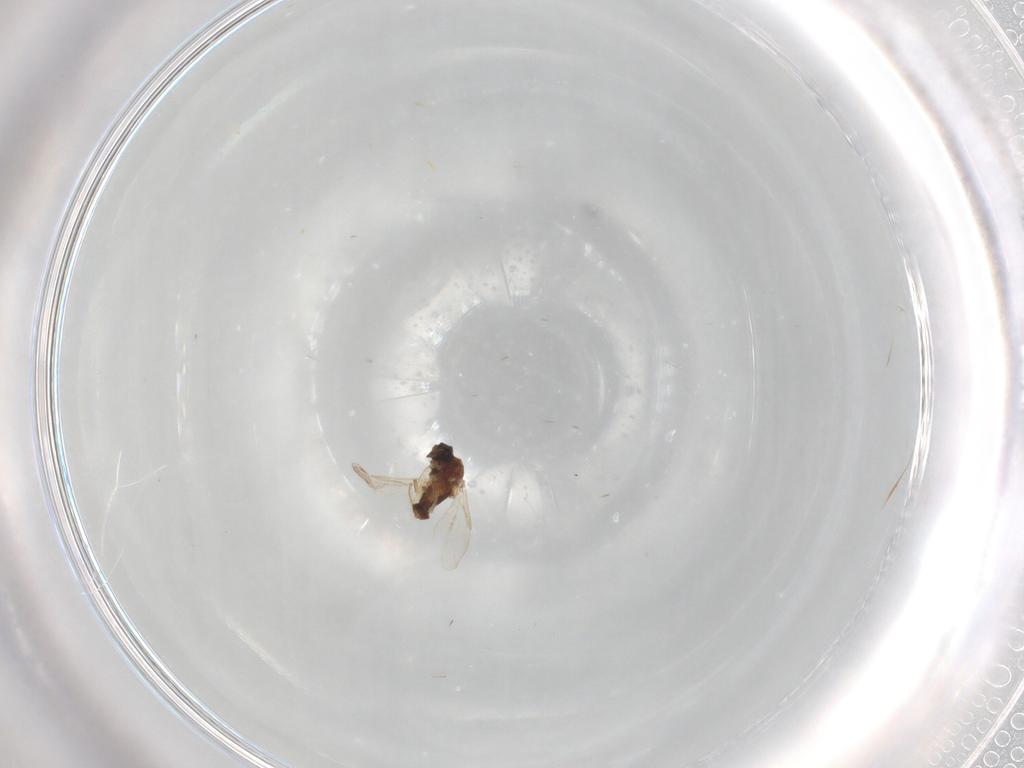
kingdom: Animalia
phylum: Arthropoda
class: Insecta
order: Diptera
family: Ceratopogonidae
